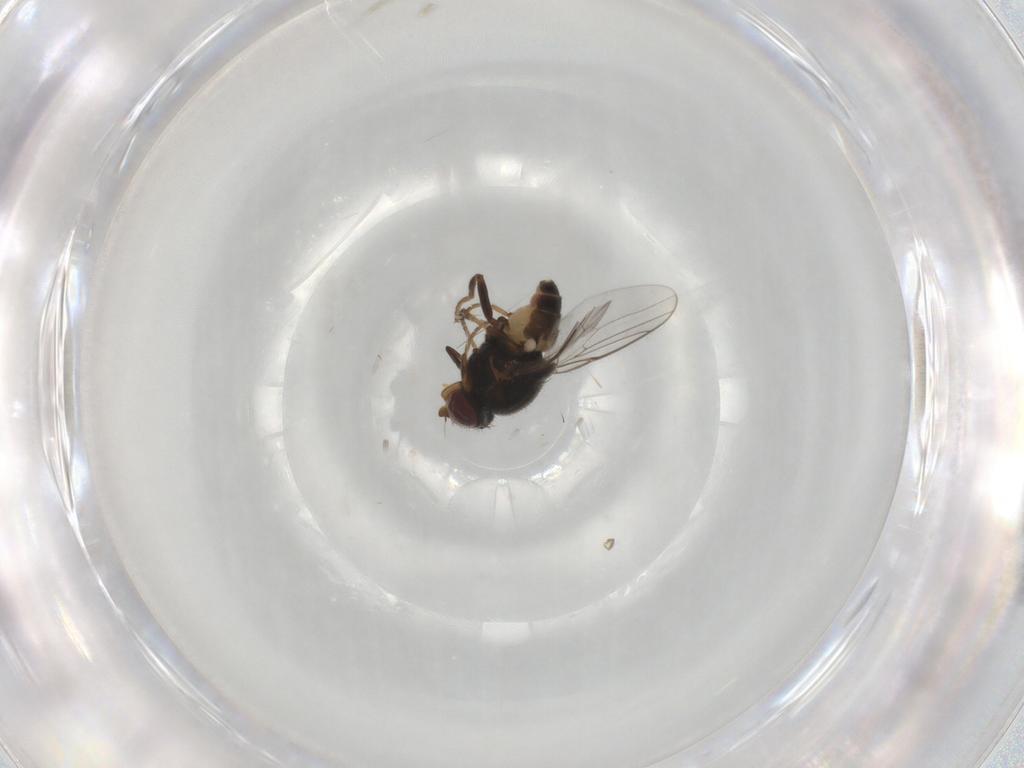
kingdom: Animalia
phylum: Arthropoda
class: Insecta
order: Diptera
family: Chloropidae
